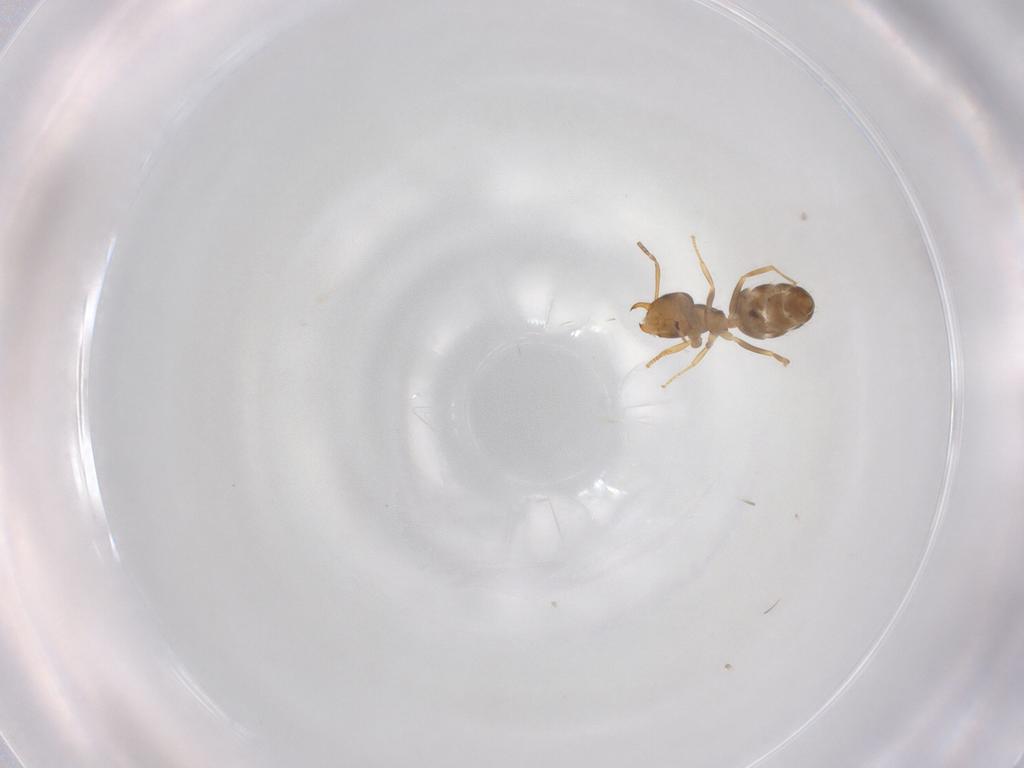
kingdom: Animalia
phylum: Arthropoda
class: Insecta
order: Hymenoptera
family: Formicidae
